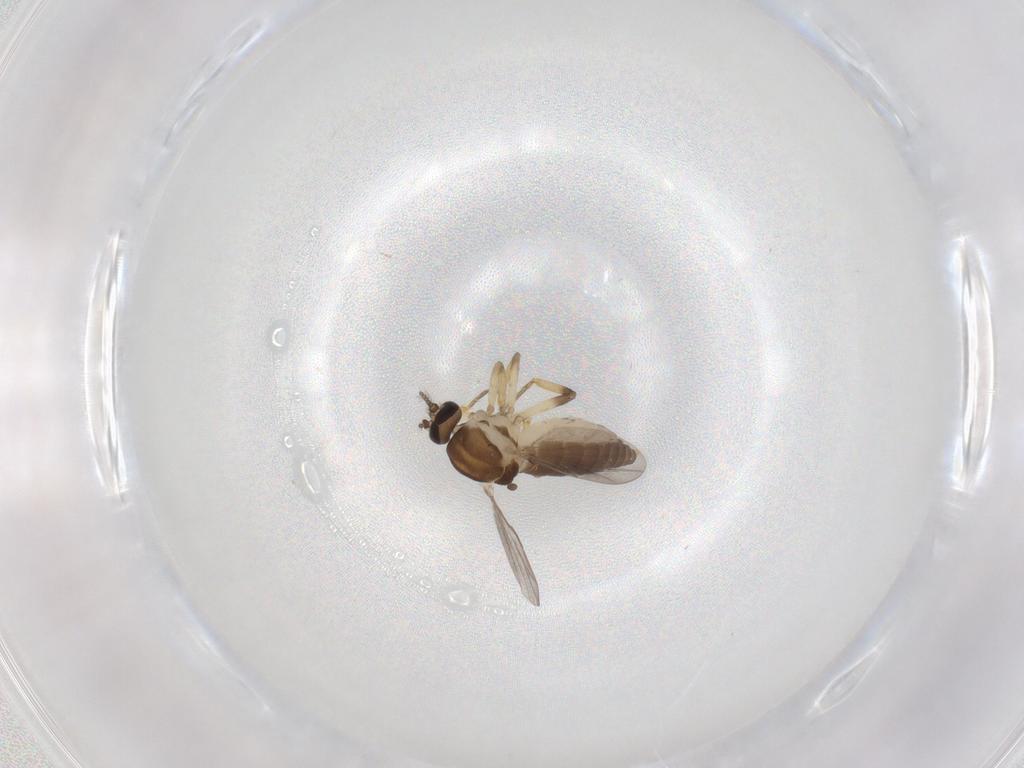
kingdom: Animalia
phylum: Arthropoda
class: Insecta
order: Diptera
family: Ceratopogonidae
